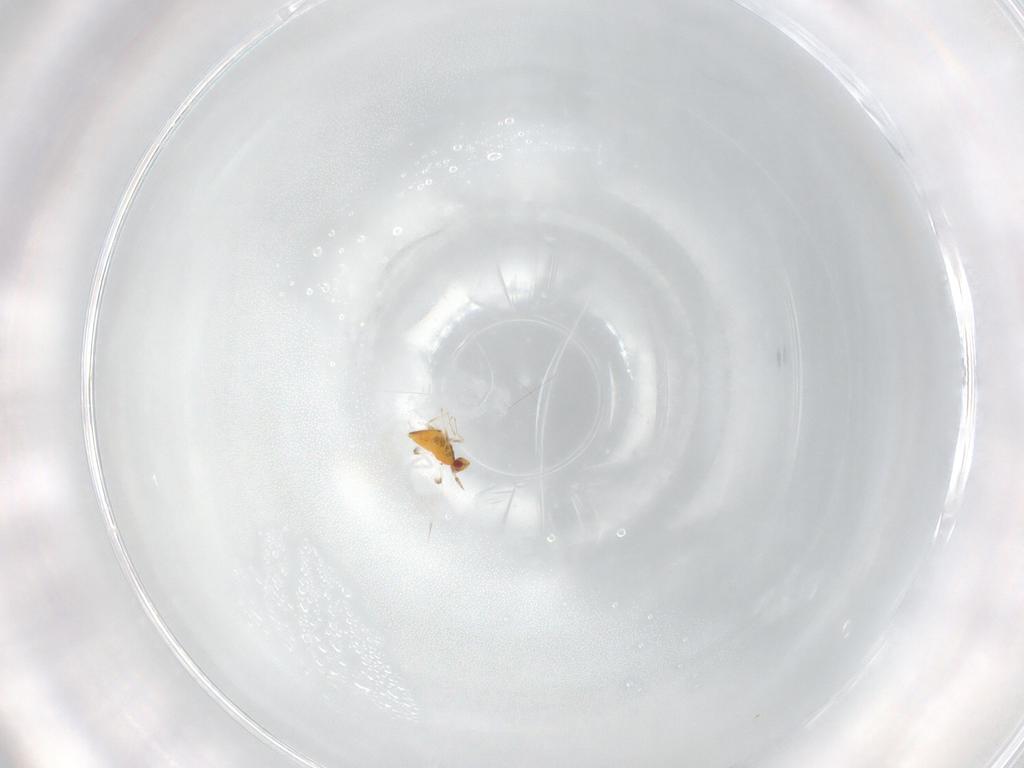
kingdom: Animalia
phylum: Arthropoda
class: Insecta
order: Hymenoptera
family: Trichogrammatidae
